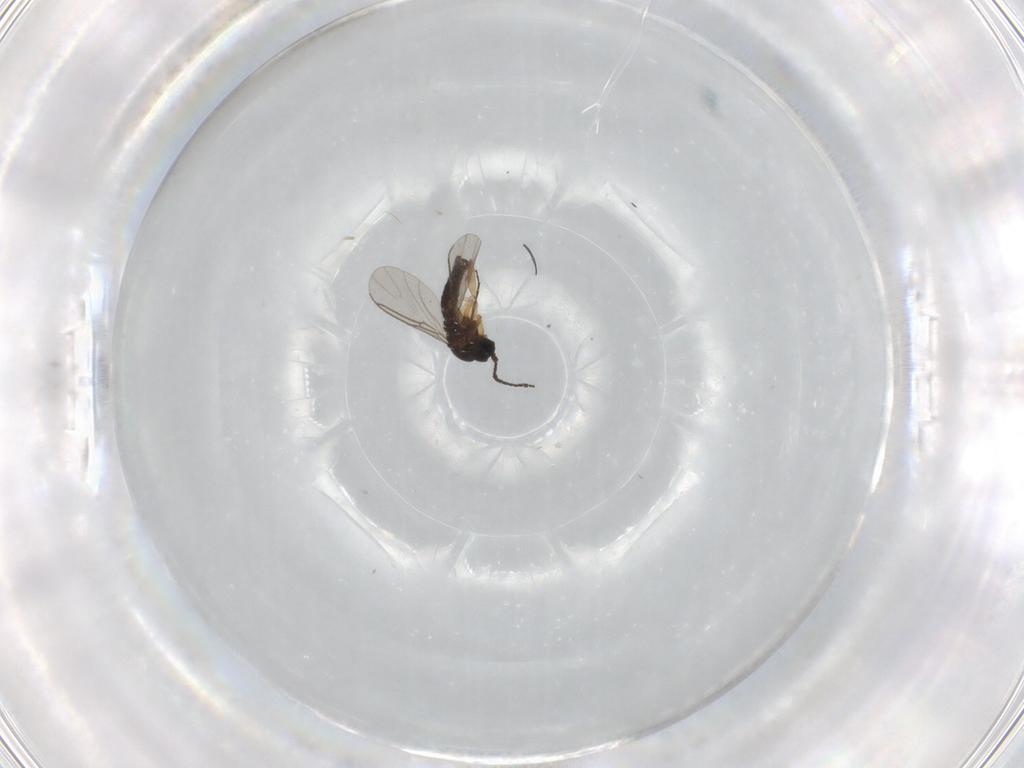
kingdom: Animalia
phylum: Arthropoda
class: Insecta
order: Diptera
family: Sciaridae
